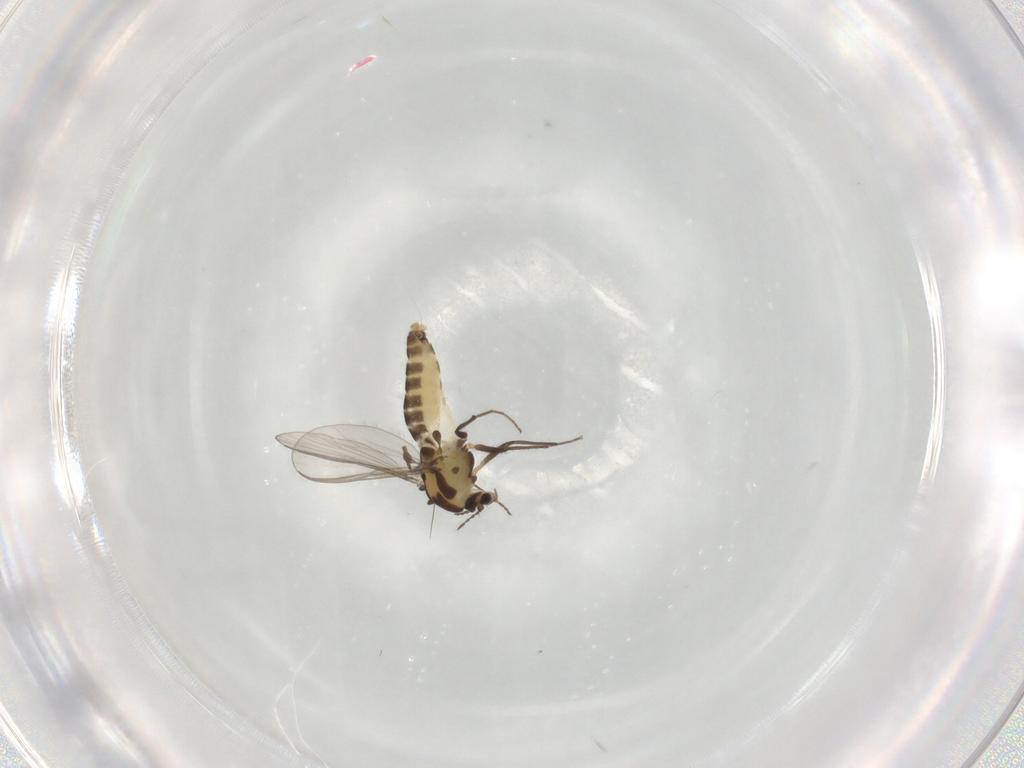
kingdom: Animalia
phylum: Arthropoda
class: Insecta
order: Diptera
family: Chironomidae
